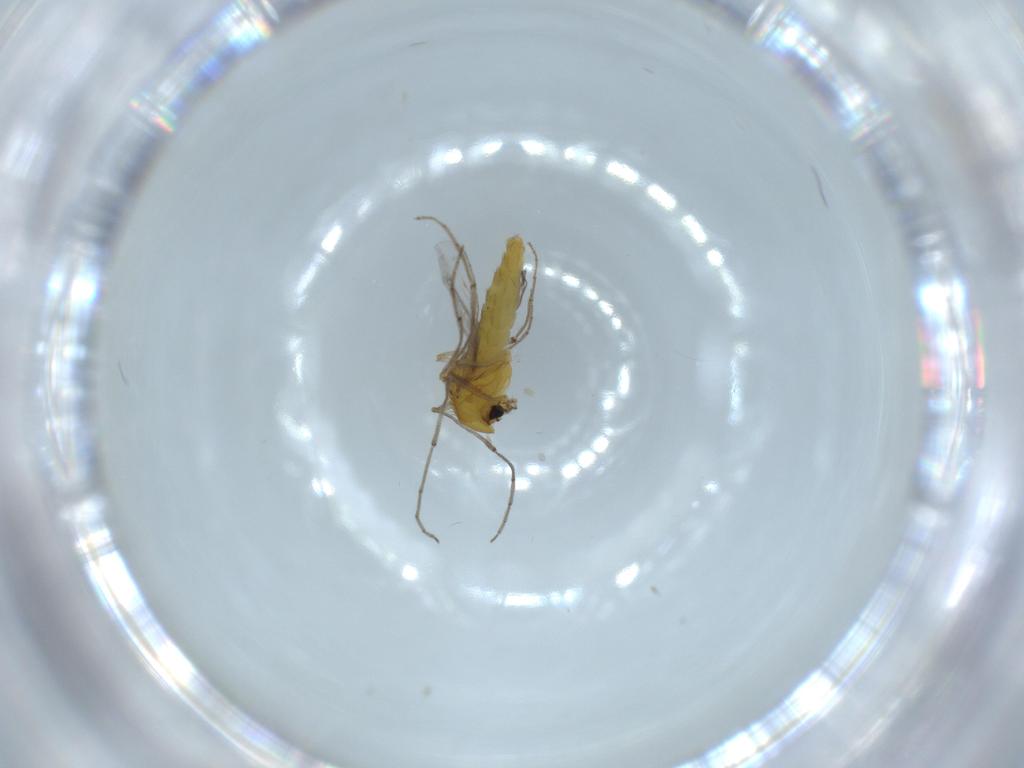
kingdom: Animalia
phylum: Arthropoda
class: Insecta
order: Diptera
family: Chironomidae
